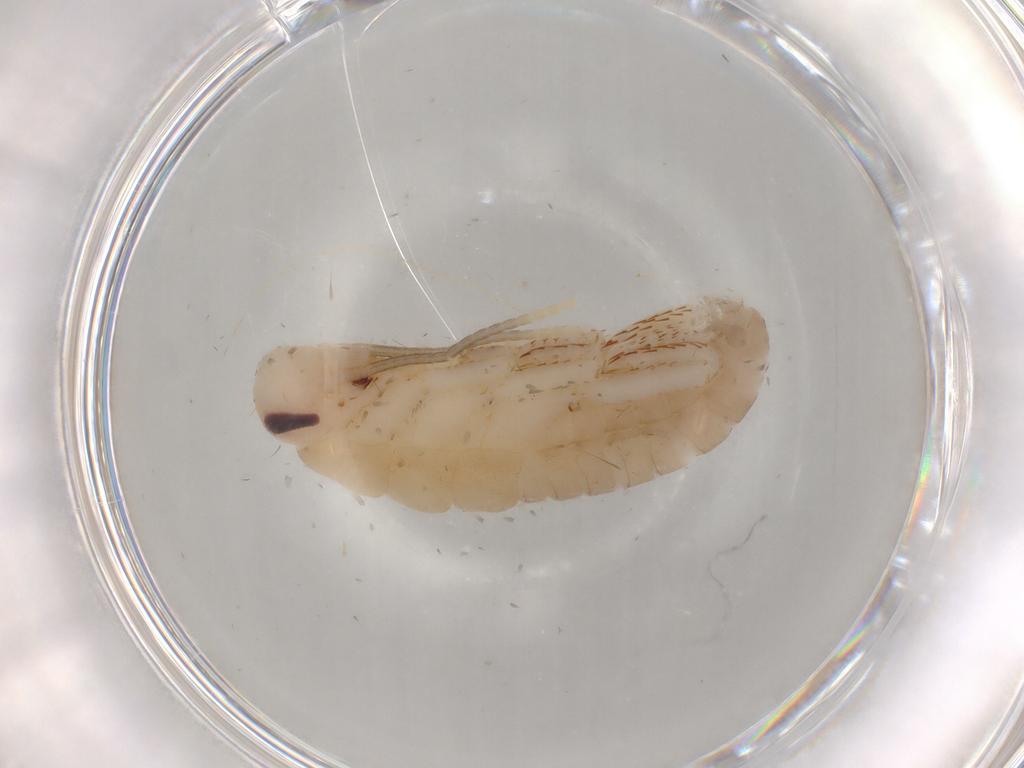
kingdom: Animalia
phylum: Arthropoda
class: Insecta
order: Blattodea
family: Blaberidae
